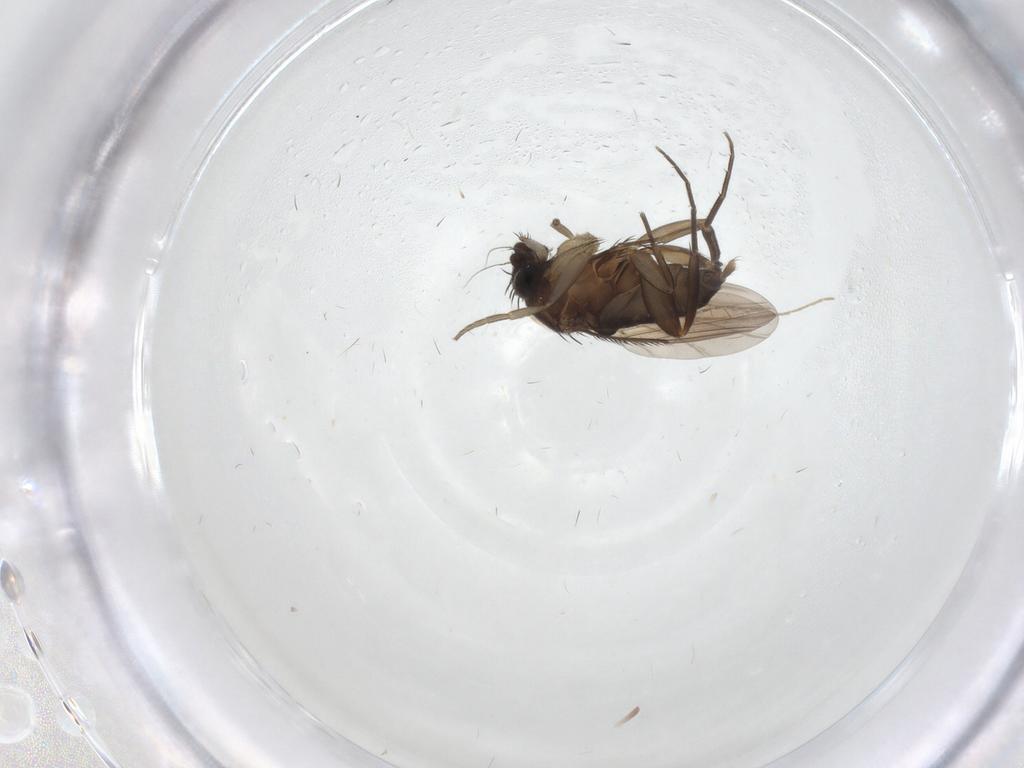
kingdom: Animalia
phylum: Arthropoda
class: Insecta
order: Diptera
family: Phoridae
